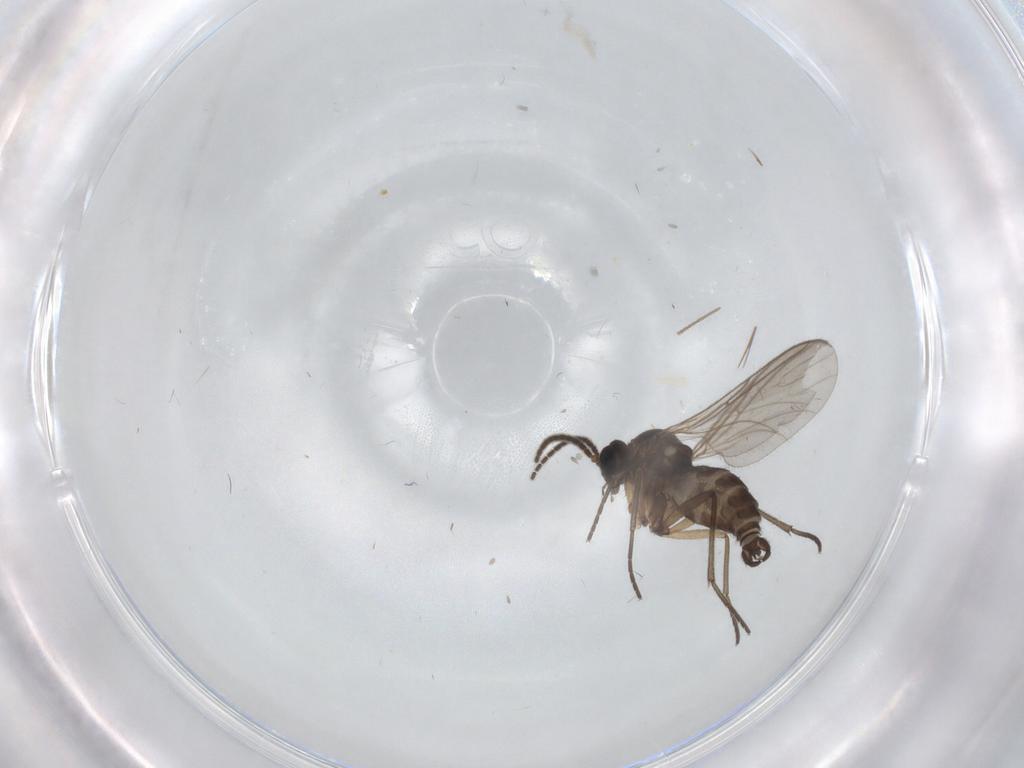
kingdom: Animalia
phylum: Arthropoda
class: Insecta
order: Diptera
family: Sciaridae
